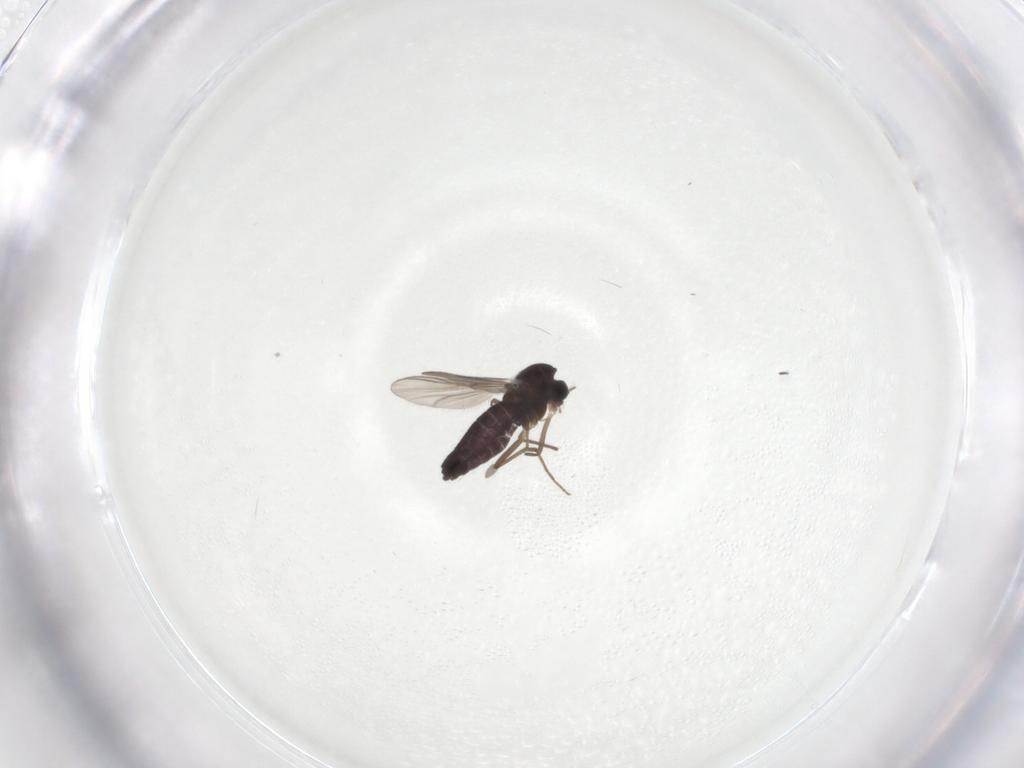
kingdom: Animalia
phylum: Arthropoda
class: Insecta
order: Diptera
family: Chironomidae
